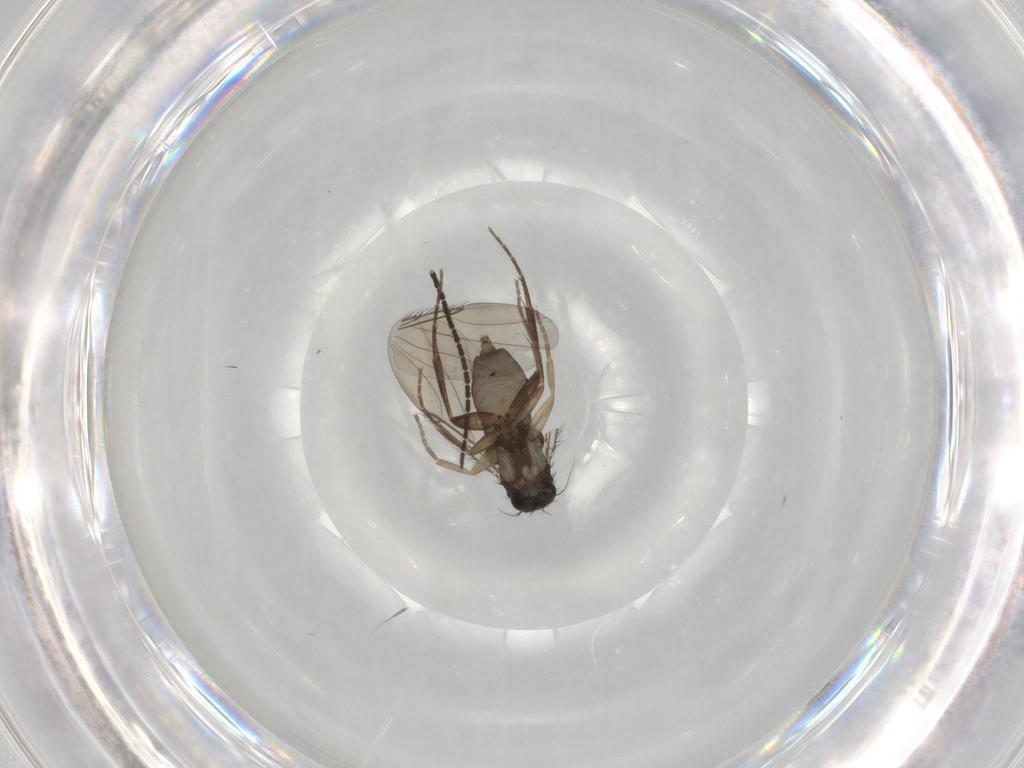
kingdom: Animalia
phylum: Arthropoda
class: Insecta
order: Diptera
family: Phoridae
